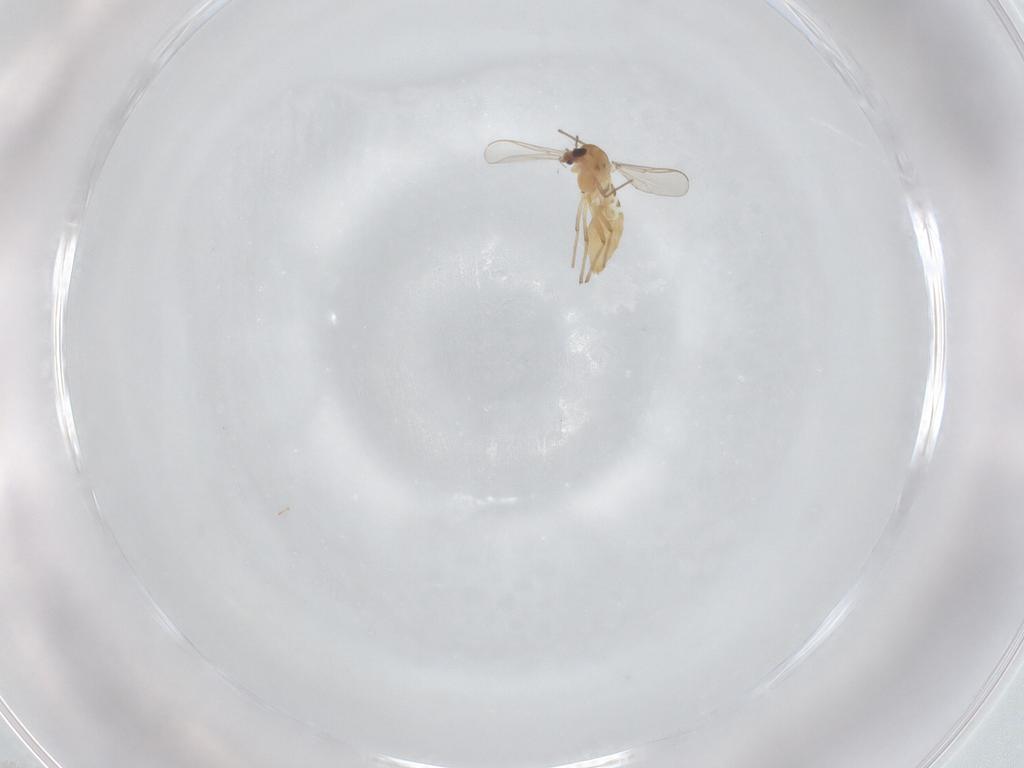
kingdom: Animalia
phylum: Arthropoda
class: Insecta
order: Diptera
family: Chironomidae
